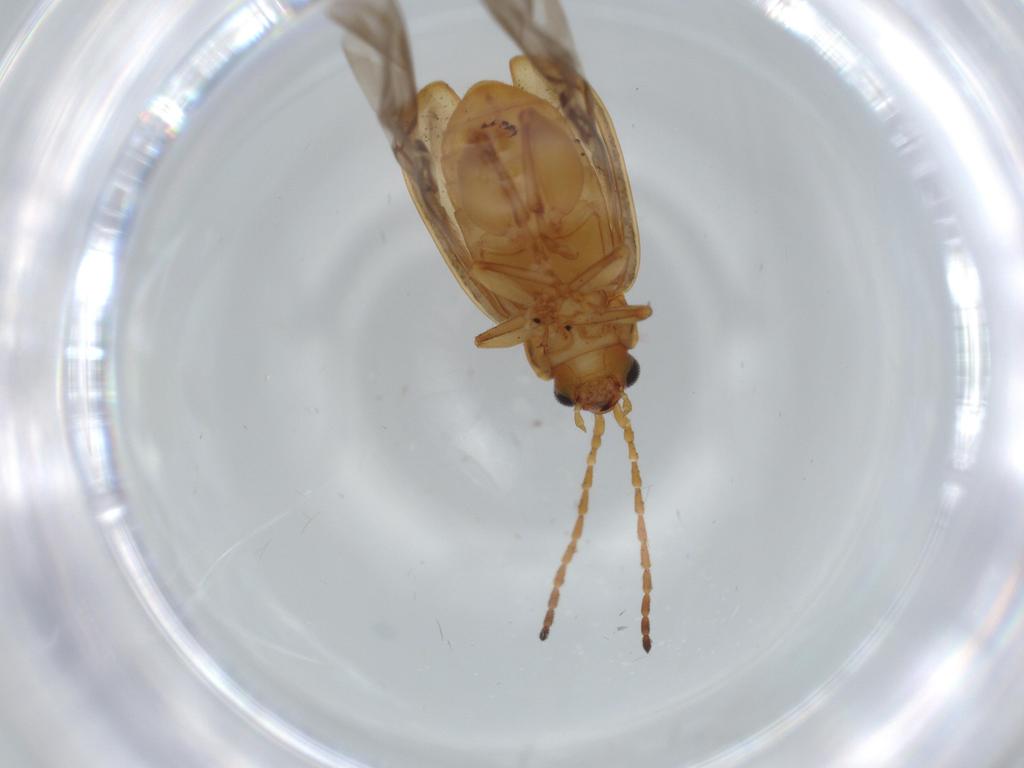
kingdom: Animalia
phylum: Arthropoda
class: Insecta
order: Coleoptera
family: Chrysomelidae
